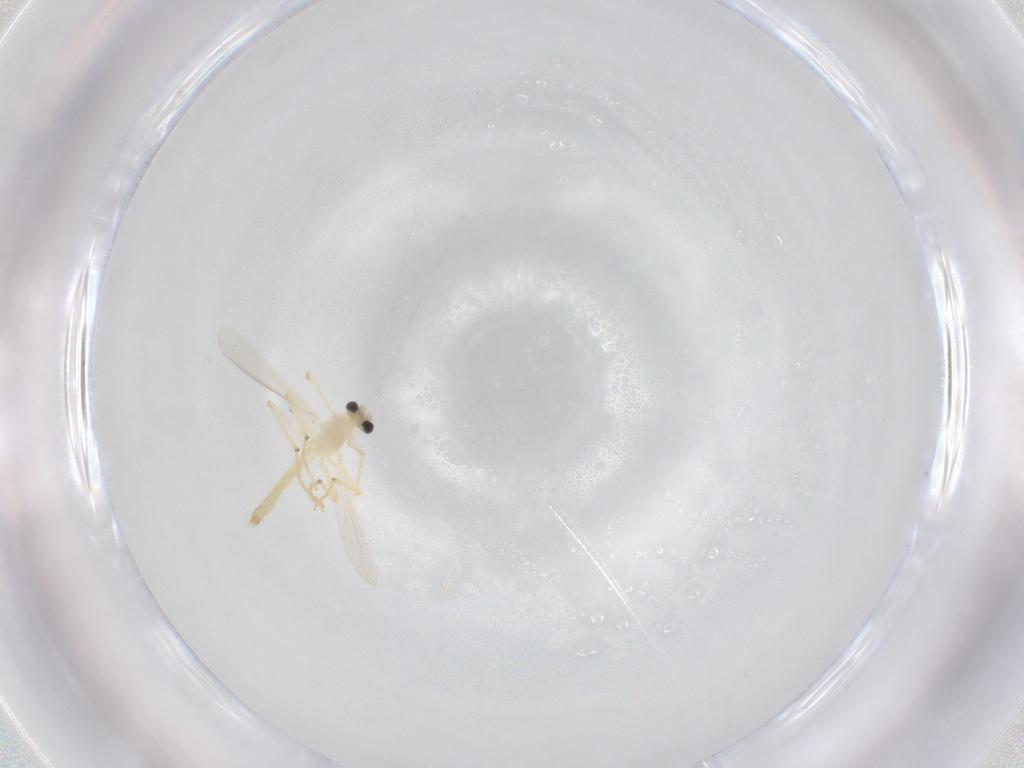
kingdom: Animalia
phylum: Arthropoda
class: Insecta
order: Diptera
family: Chironomidae
